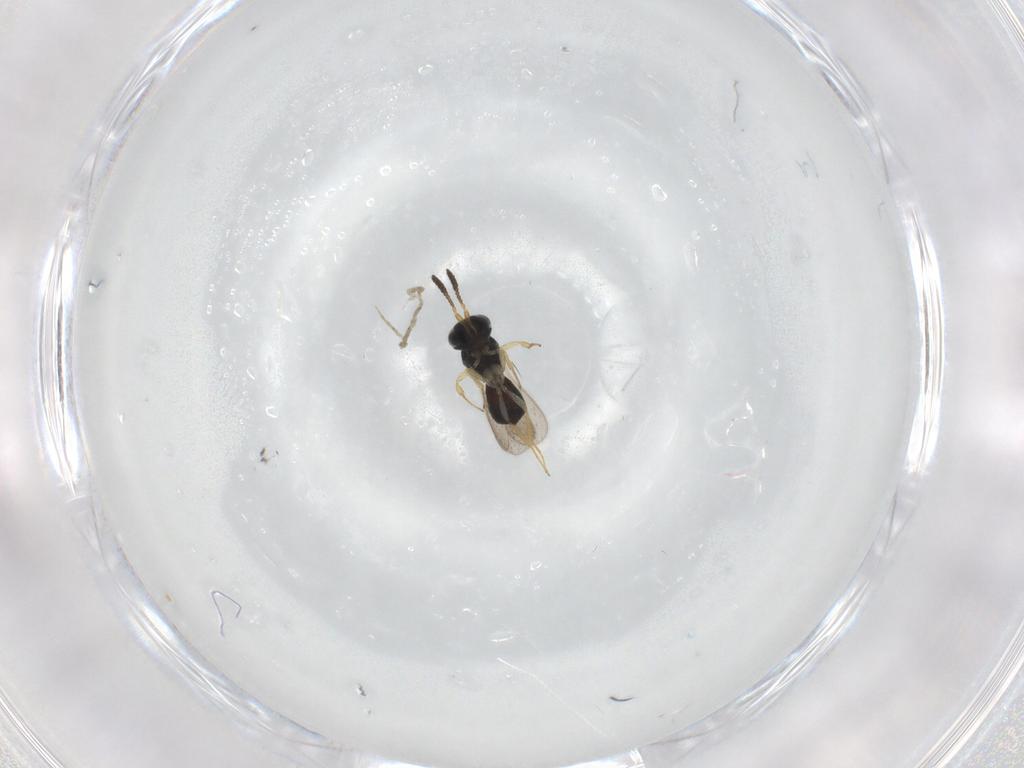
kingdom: Animalia
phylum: Arthropoda
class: Insecta
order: Hymenoptera
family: Scelionidae
